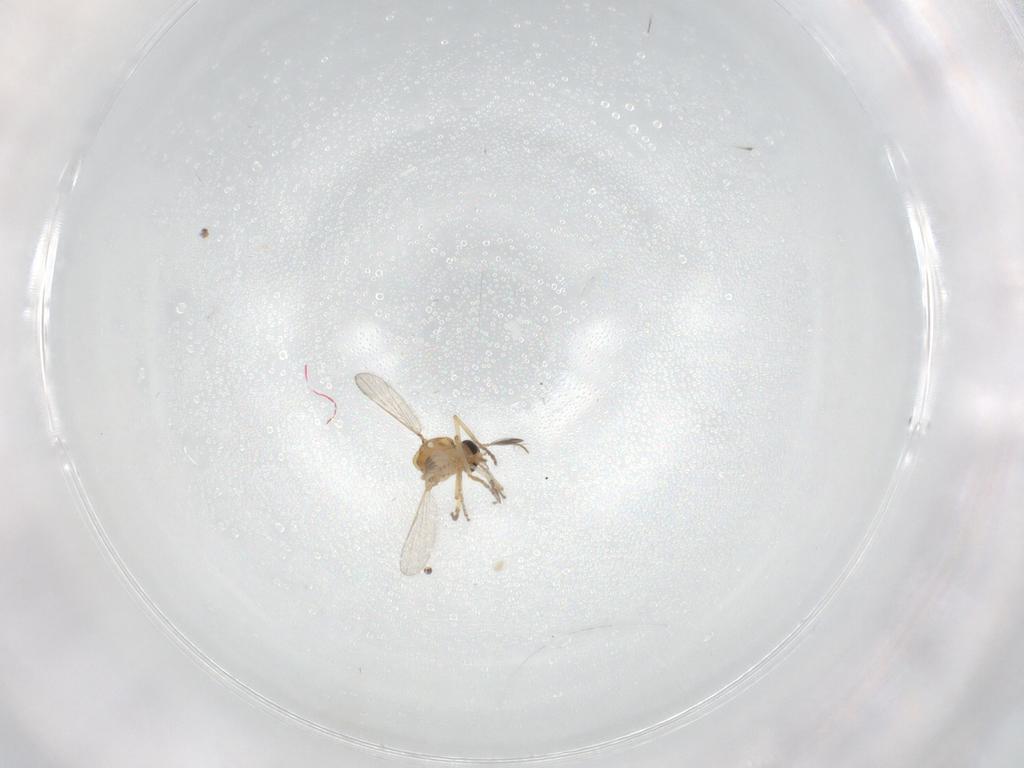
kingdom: Animalia
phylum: Arthropoda
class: Insecta
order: Diptera
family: Ceratopogonidae
